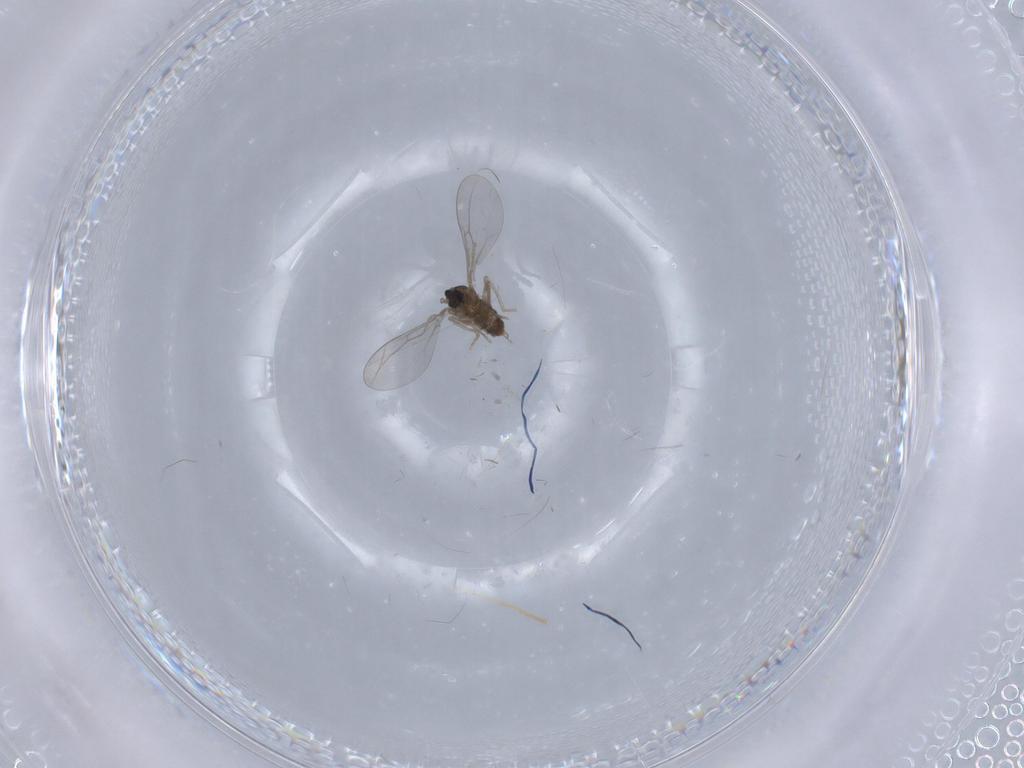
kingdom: Animalia
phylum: Arthropoda
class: Insecta
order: Diptera
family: Cecidomyiidae
